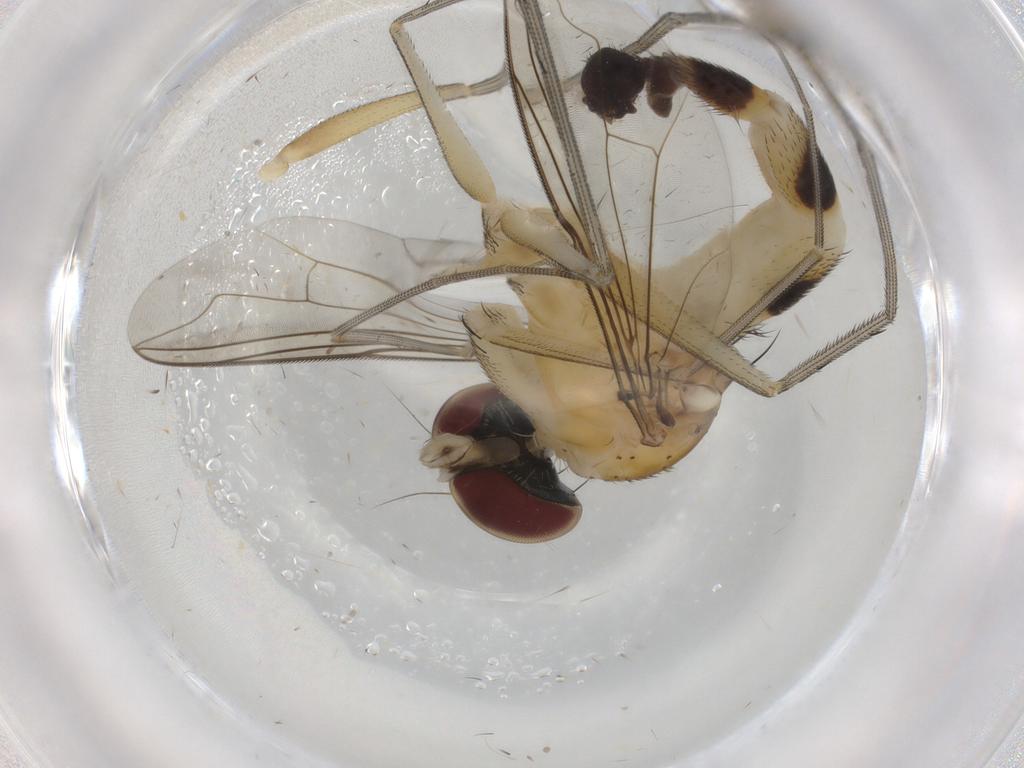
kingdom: Animalia
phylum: Arthropoda
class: Insecta
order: Diptera
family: Dolichopodidae
